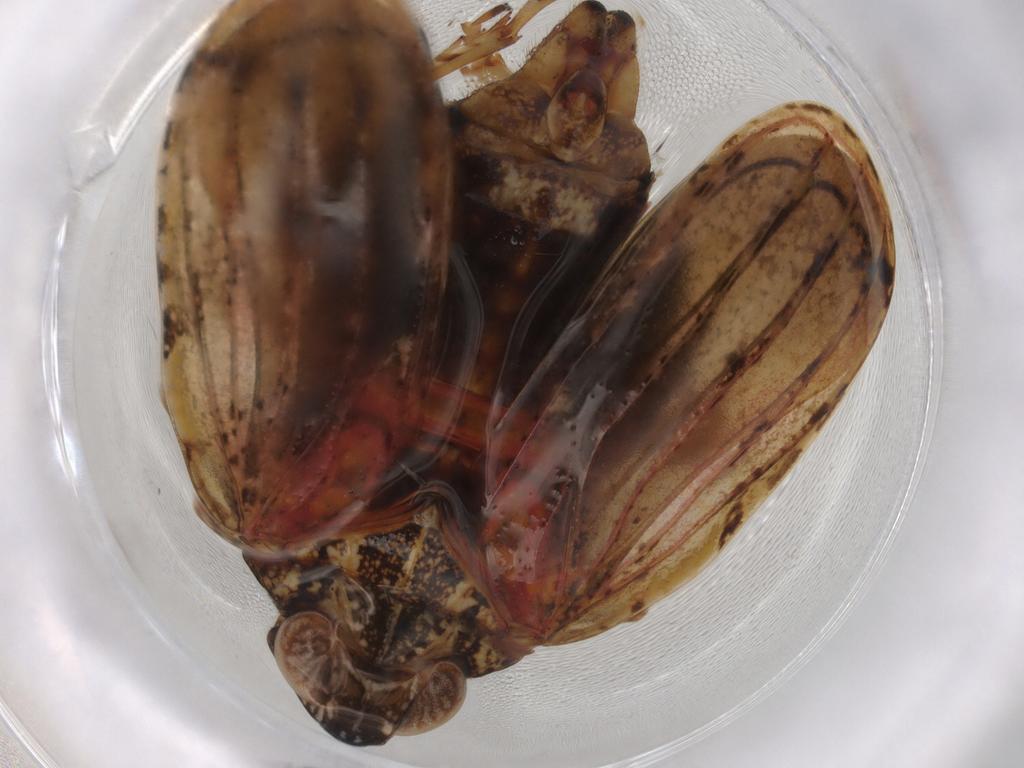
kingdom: Animalia
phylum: Arthropoda
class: Insecta
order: Hemiptera
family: Tropiduchidae
